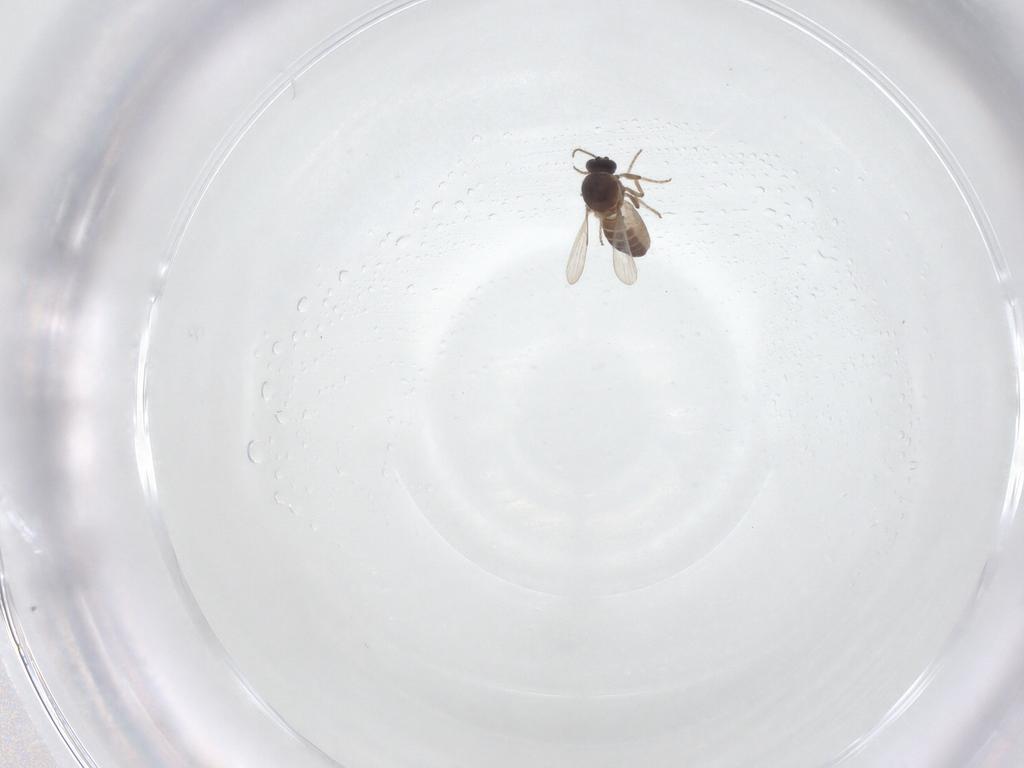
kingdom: Animalia
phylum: Arthropoda
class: Insecta
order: Diptera
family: Ceratopogonidae
